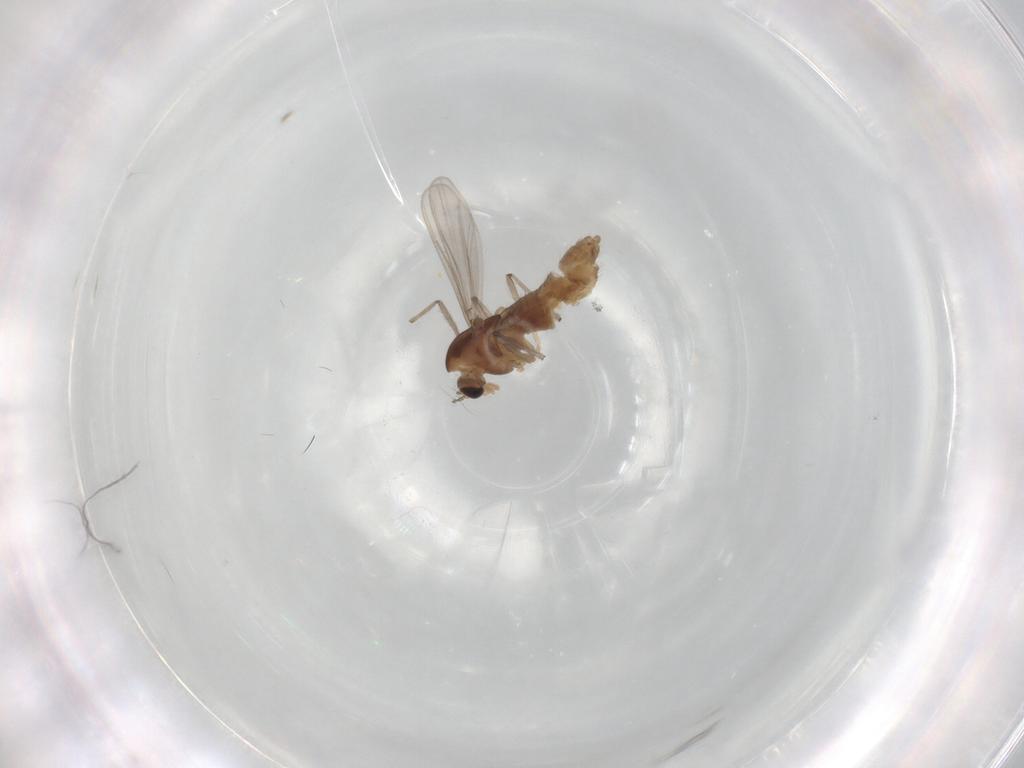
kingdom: Animalia
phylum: Arthropoda
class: Insecta
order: Diptera
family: Chironomidae
